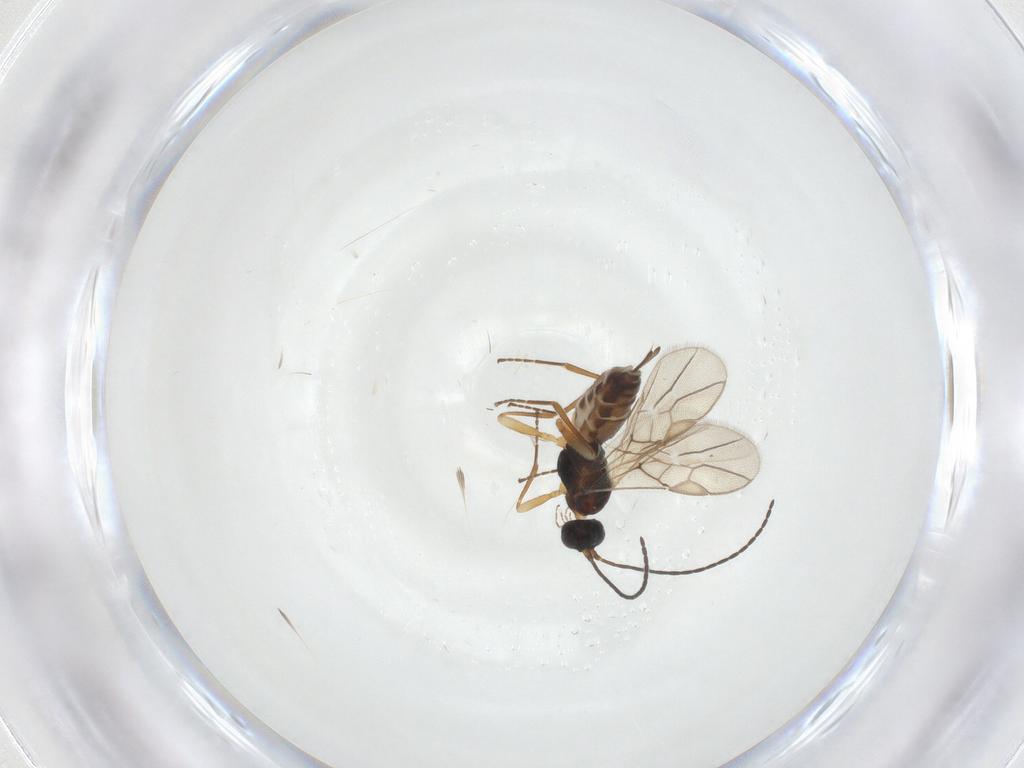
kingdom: Animalia
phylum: Arthropoda
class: Insecta
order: Hymenoptera
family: Braconidae
